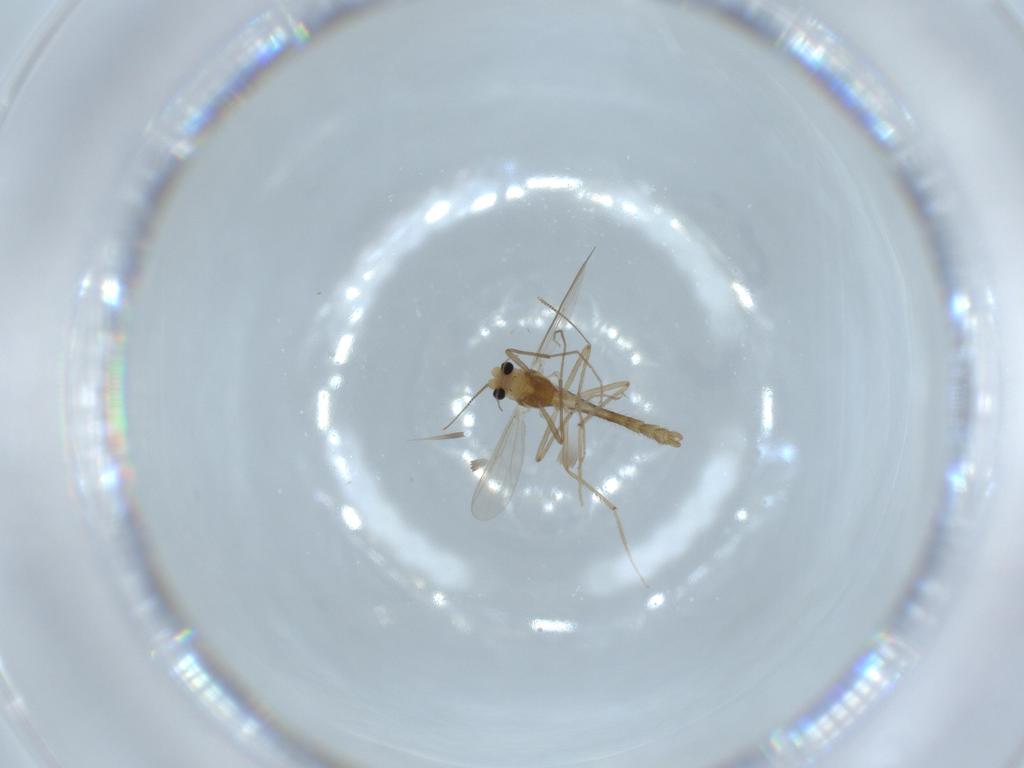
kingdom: Animalia
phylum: Arthropoda
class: Insecta
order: Diptera
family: Chironomidae
